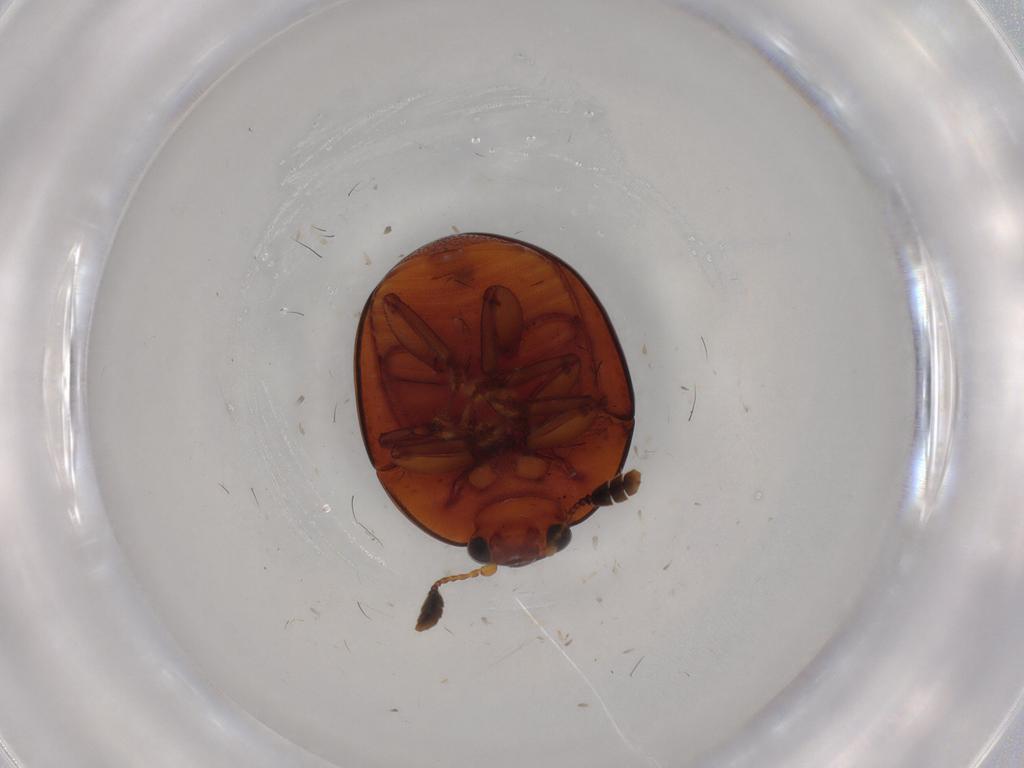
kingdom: Animalia
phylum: Arthropoda
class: Insecta
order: Coleoptera
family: Nitidulidae
